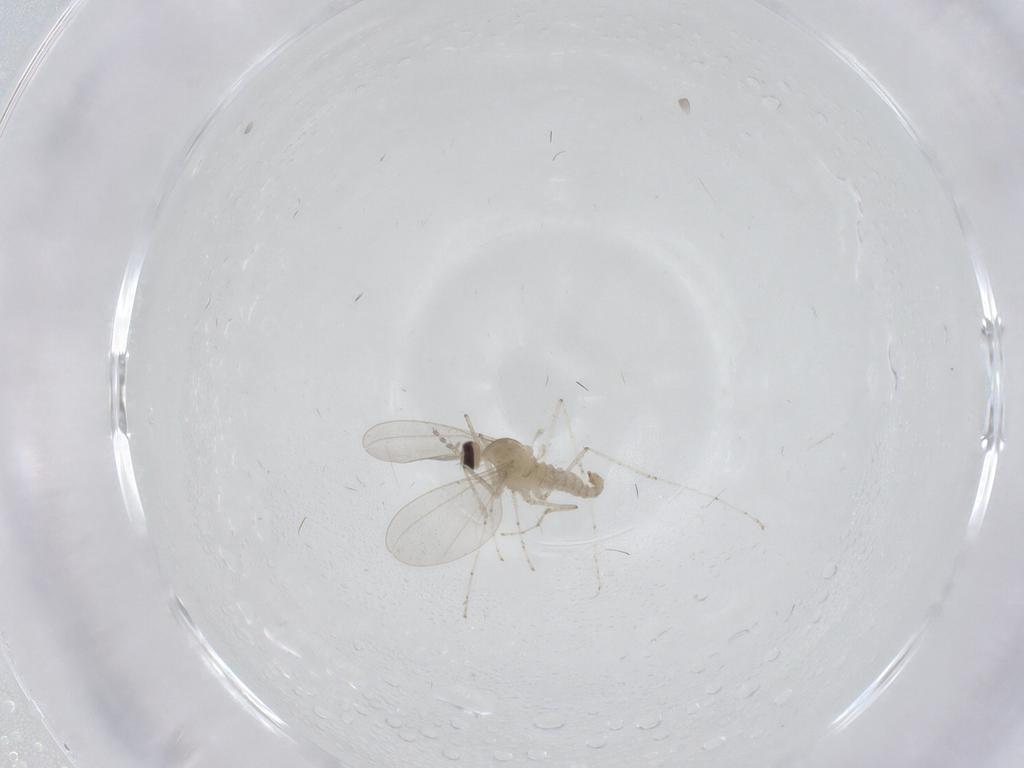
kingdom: Animalia
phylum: Arthropoda
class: Insecta
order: Diptera
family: Cecidomyiidae
